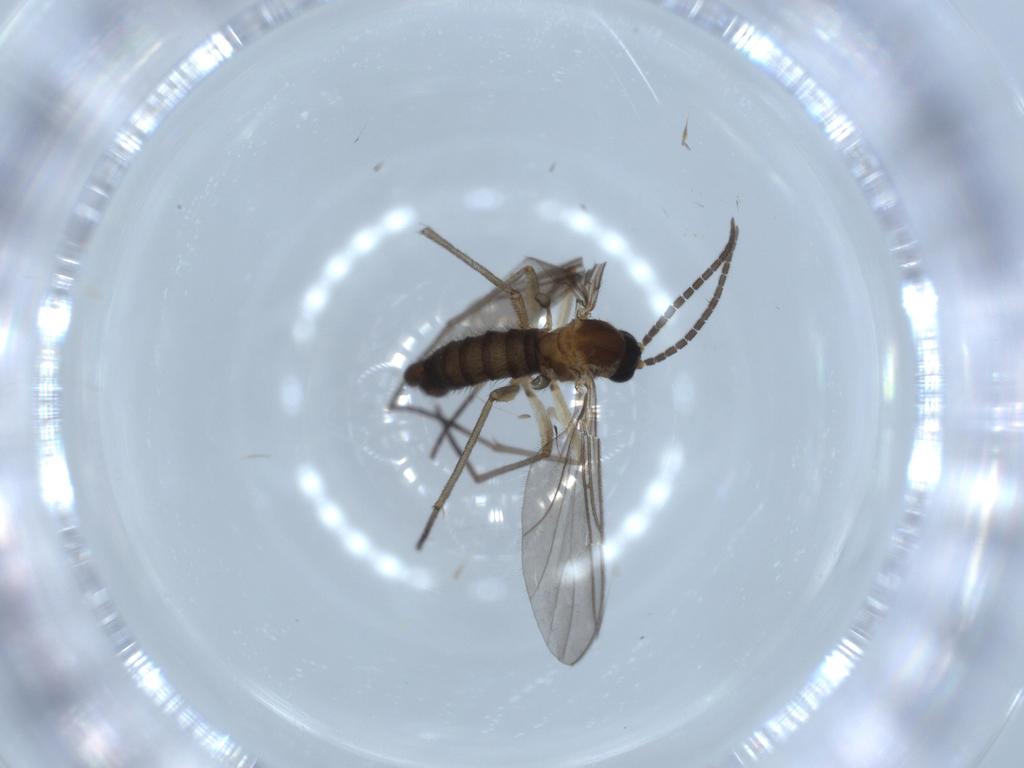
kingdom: Animalia
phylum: Arthropoda
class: Insecta
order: Diptera
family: Sciaridae
